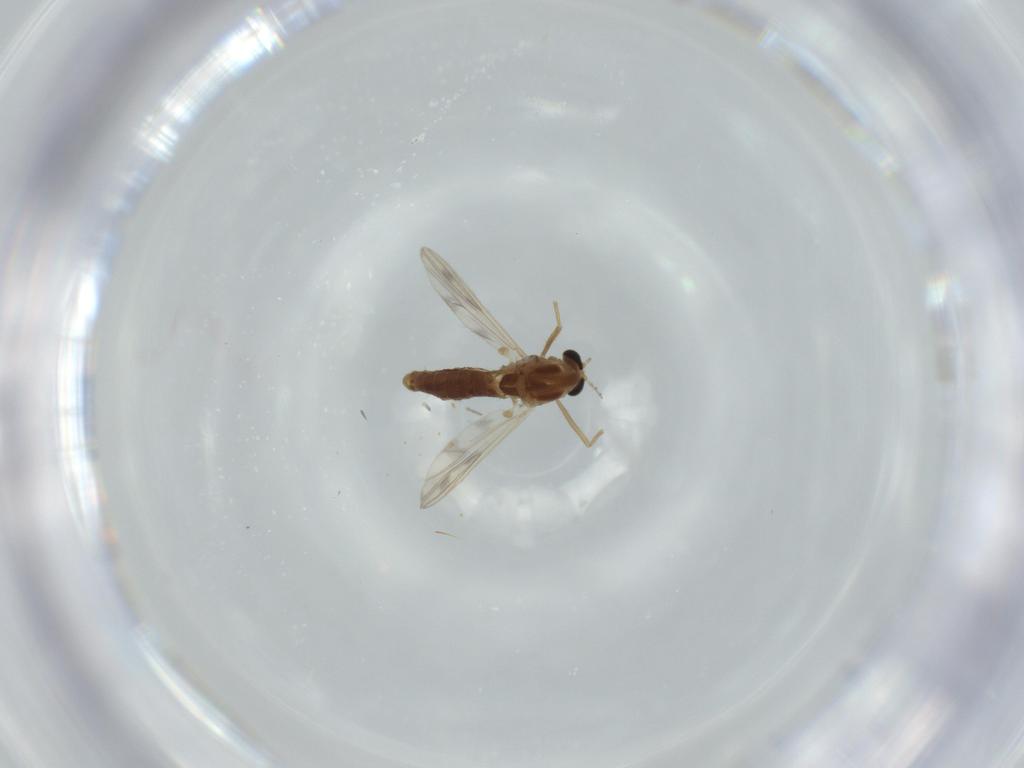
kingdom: Animalia
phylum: Arthropoda
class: Insecta
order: Diptera
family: Chironomidae
